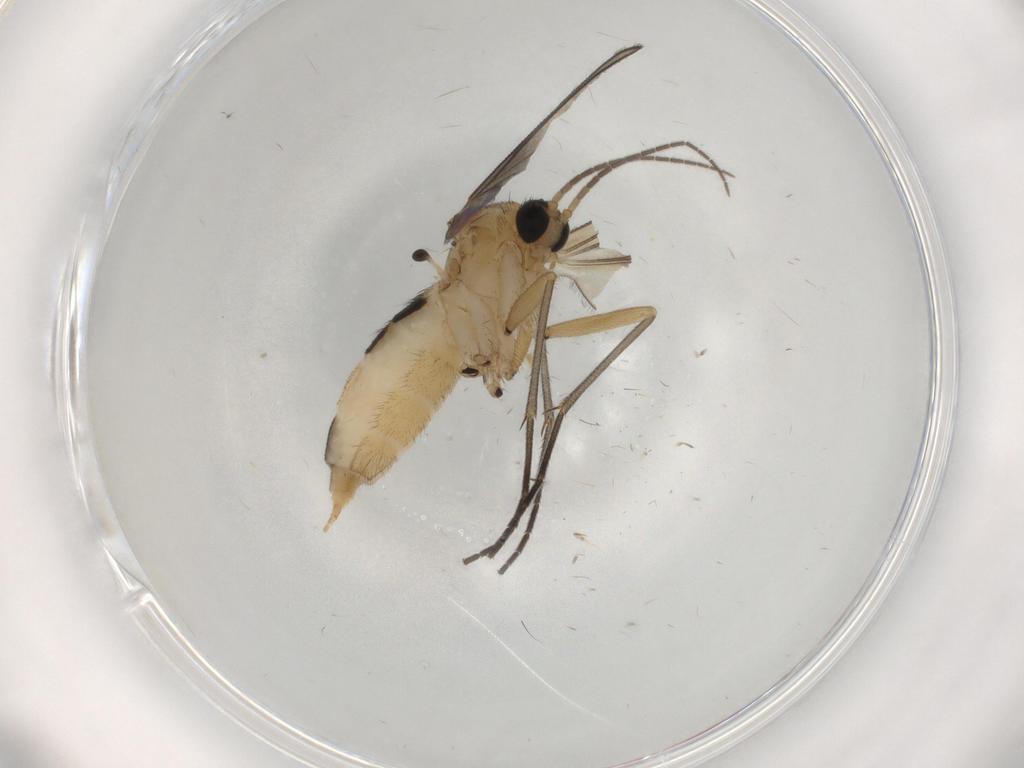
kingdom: Animalia
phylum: Arthropoda
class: Insecta
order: Diptera
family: Sciaridae
